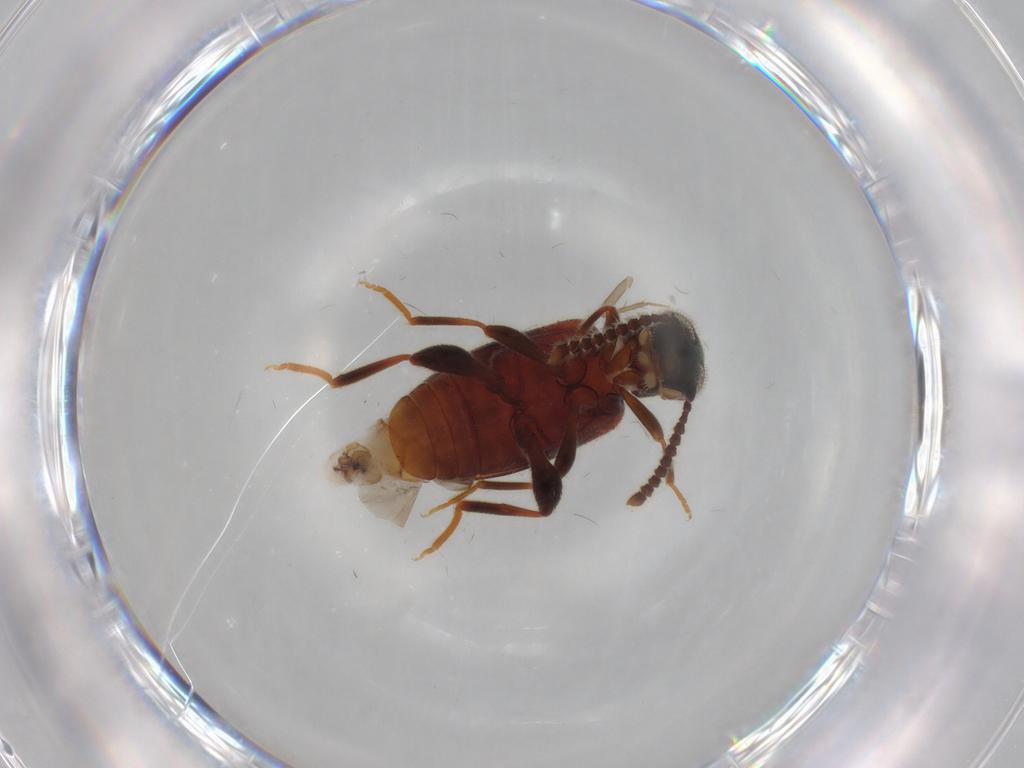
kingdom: Animalia
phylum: Arthropoda
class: Insecta
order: Coleoptera
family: Aderidae
